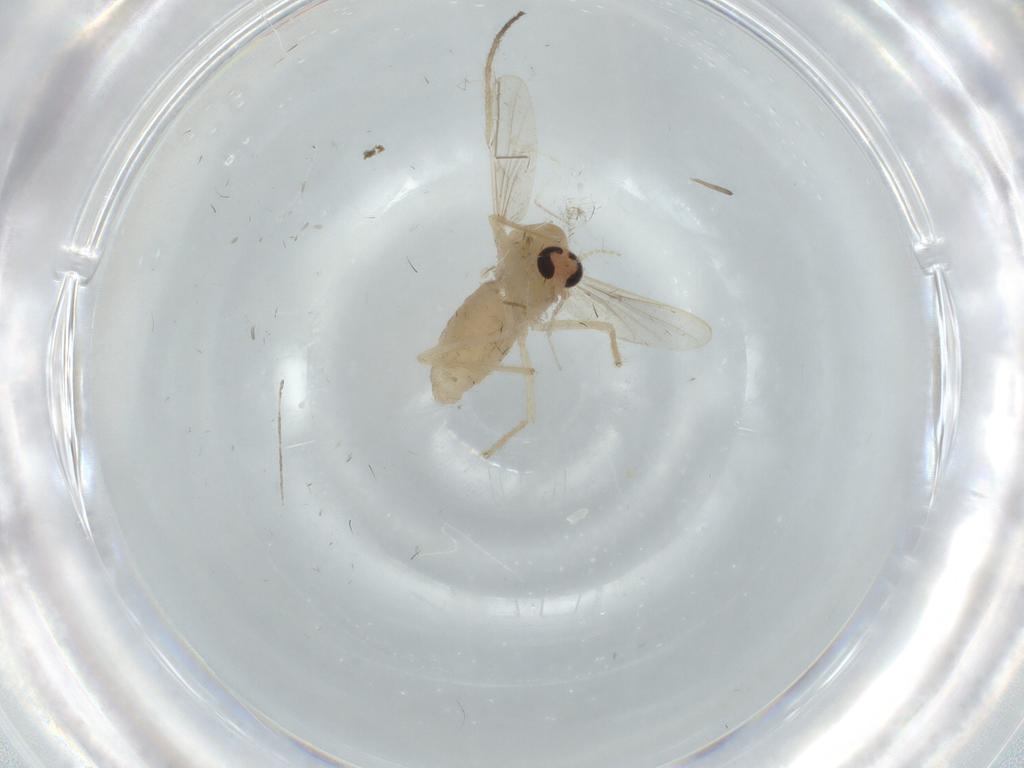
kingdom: Animalia
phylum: Arthropoda
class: Insecta
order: Diptera
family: Chironomidae
